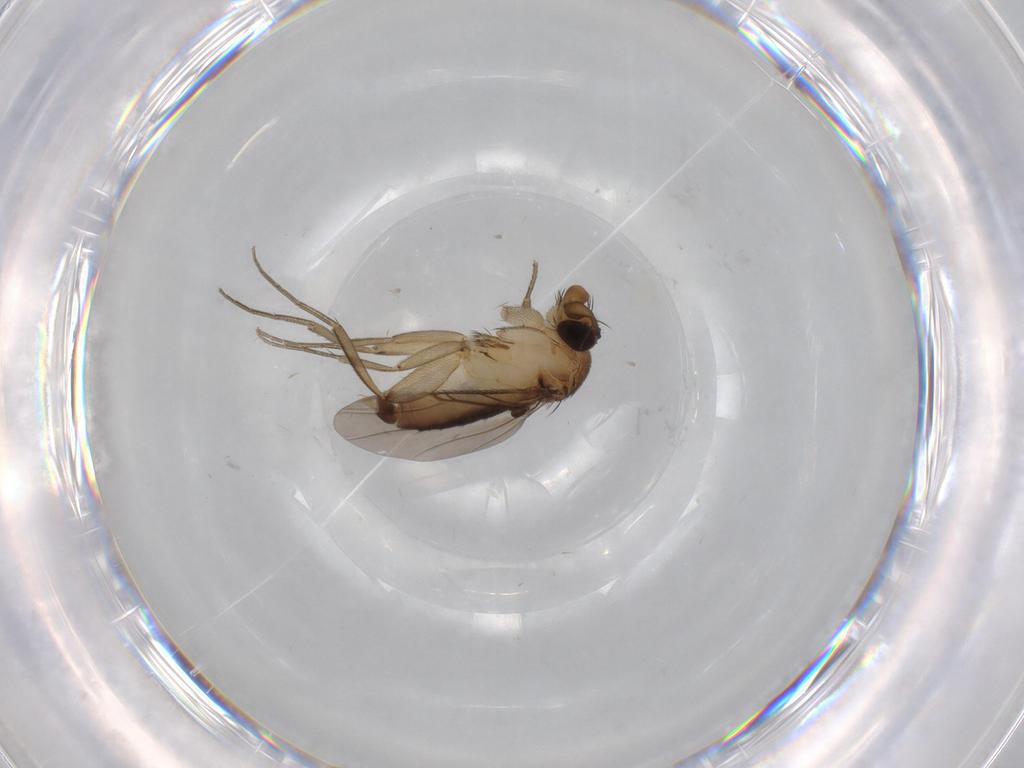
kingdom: Animalia
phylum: Arthropoda
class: Insecta
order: Diptera
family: Phoridae
